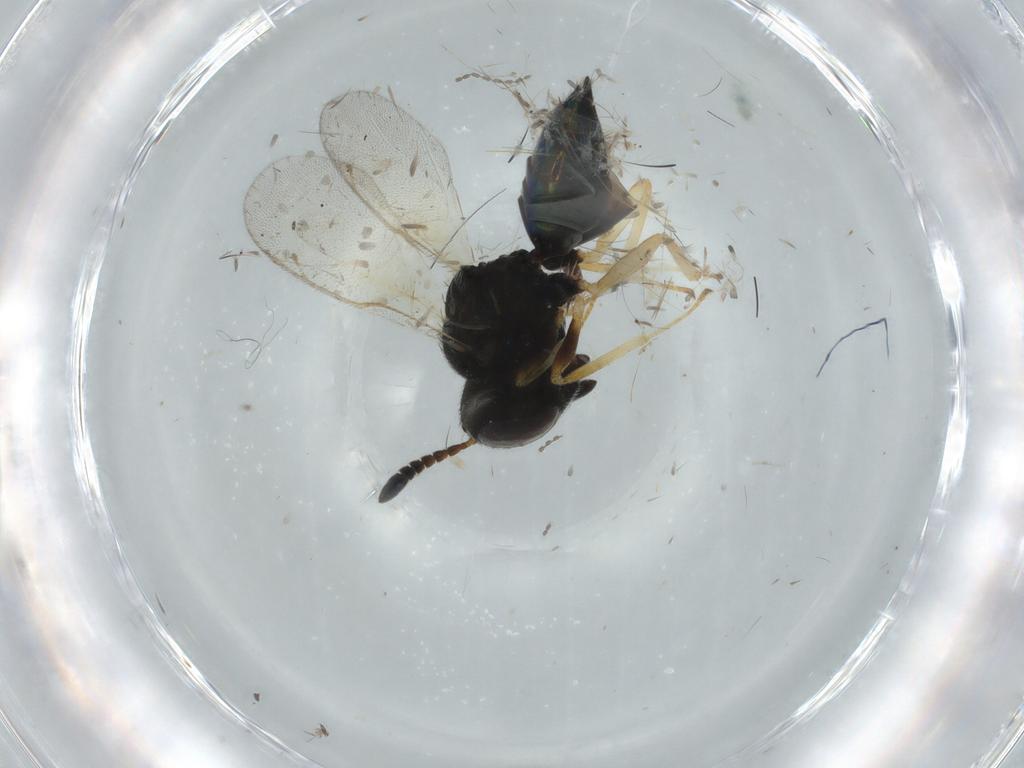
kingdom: Animalia
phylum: Arthropoda
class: Insecta
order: Hymenoptera
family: Pteromalidae
